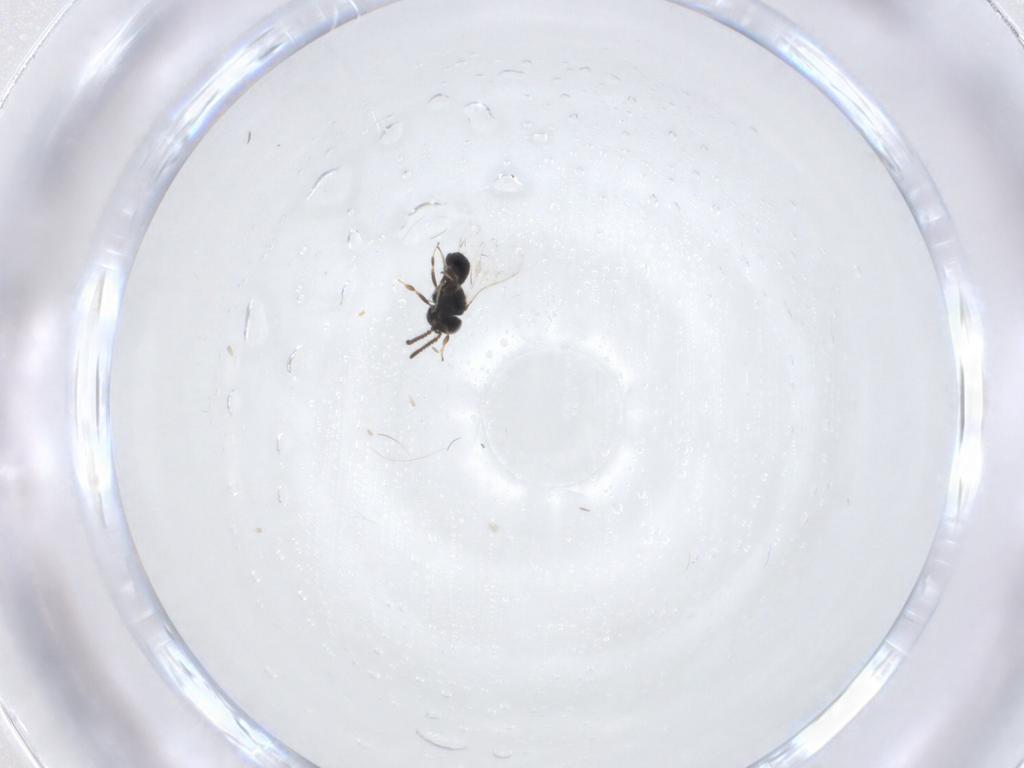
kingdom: Animalia
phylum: Arthropoda
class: Insecta
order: Hymenoptera
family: Scelionidae
